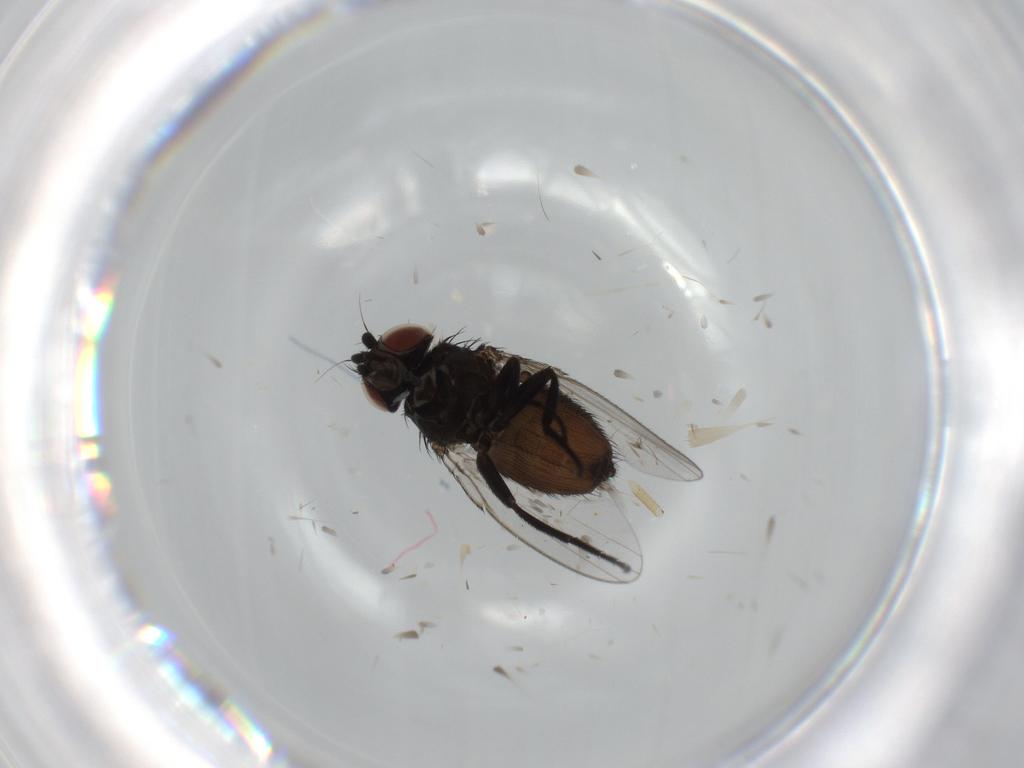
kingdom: Animalia
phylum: Arthropoda
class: Insecta
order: Diptera
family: Milichiidae
